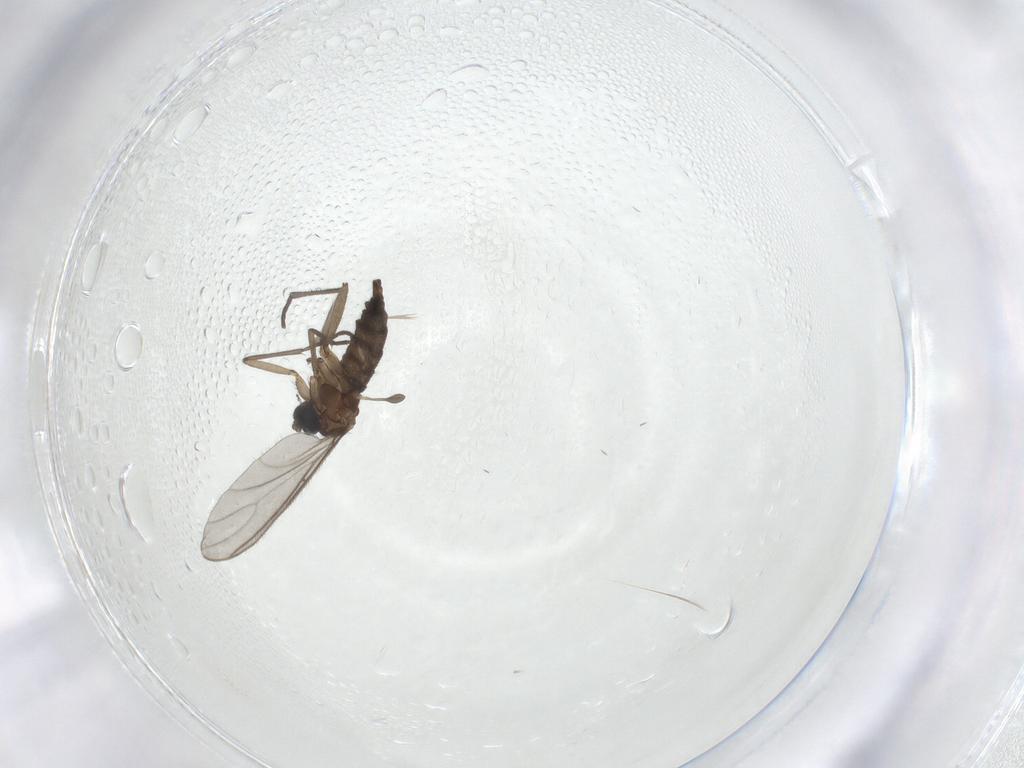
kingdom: Animalia
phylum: Arthropoda
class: Insecta
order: Diptera
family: Sciaridae
